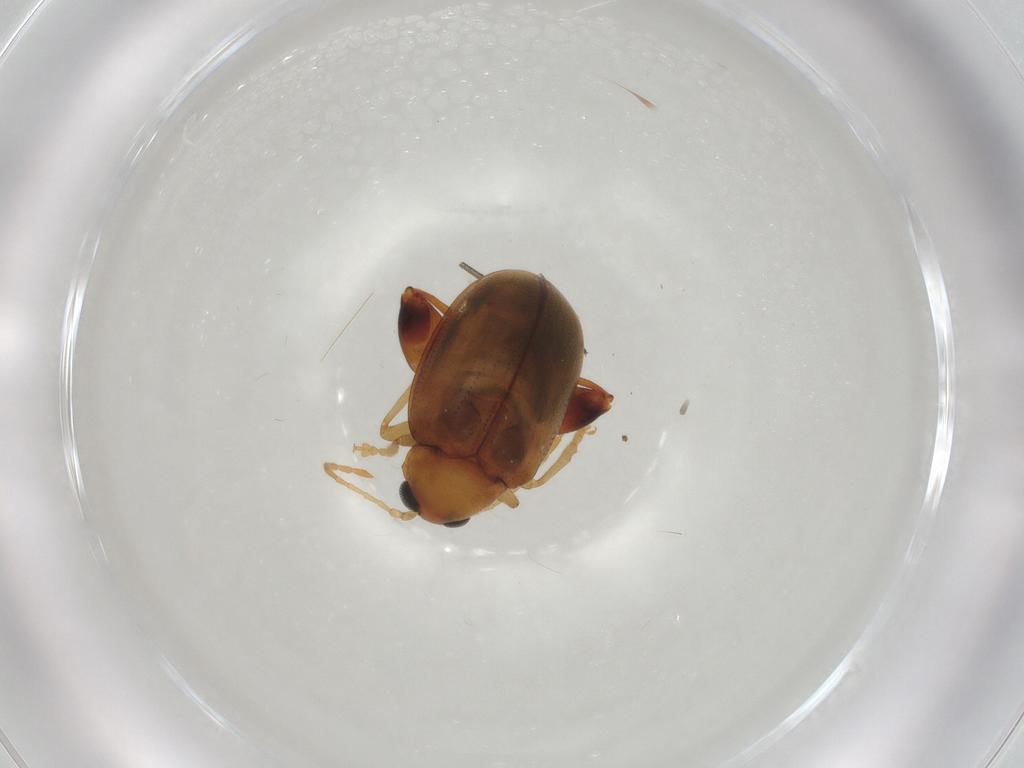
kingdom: Animalia
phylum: Arthropoda
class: Insecta
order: Coleoptera
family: Chrysomelidae
